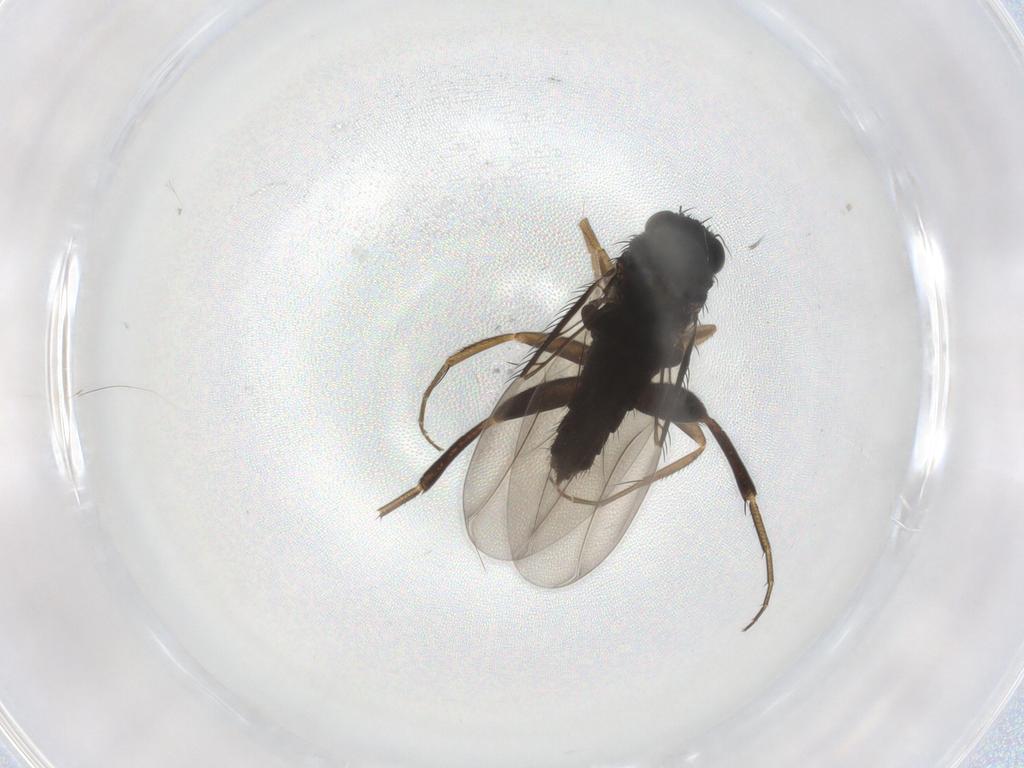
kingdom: Animalia
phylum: Arthropoda
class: Insecta
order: Diptera
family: Phoridae
